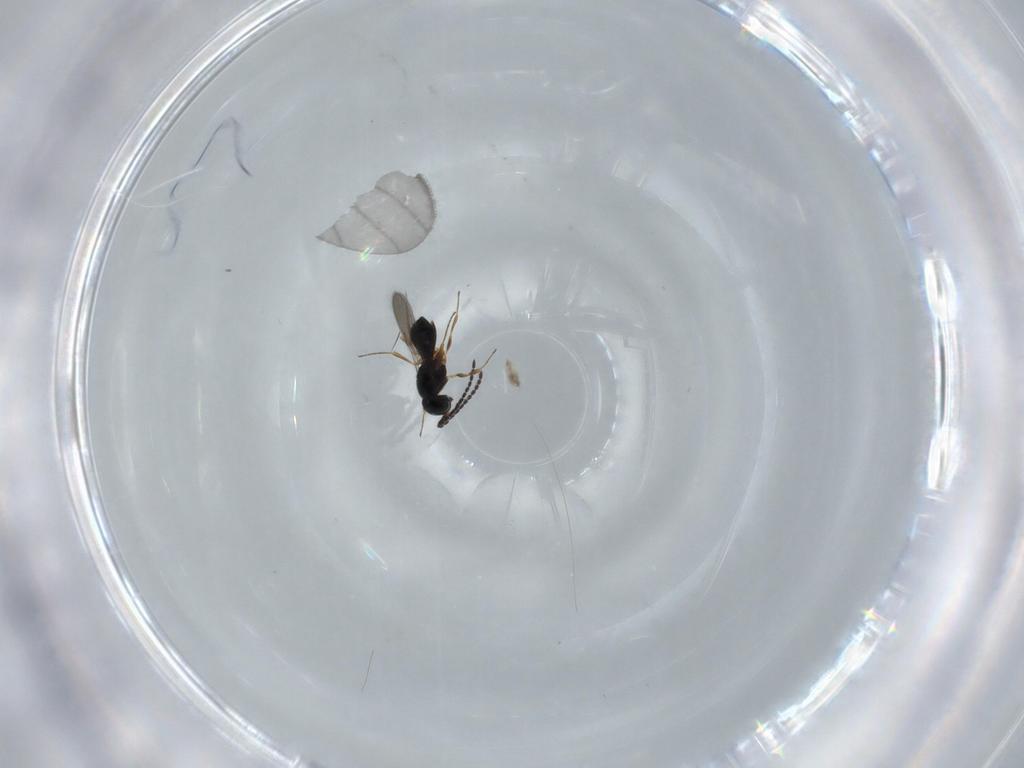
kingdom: Animalia
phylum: Arthropoda
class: Insecta
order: Hymenoptera
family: Scelionidae
